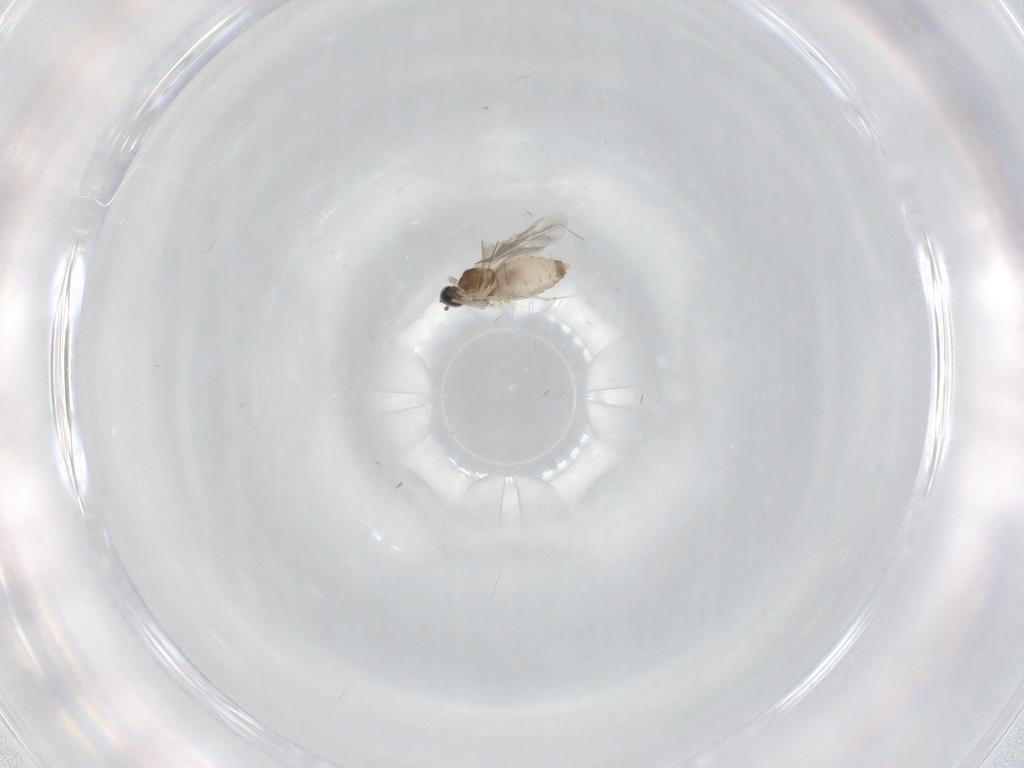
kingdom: Animalia
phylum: Arthropoda
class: Insecta
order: Diptera
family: Cecidomyiidae
